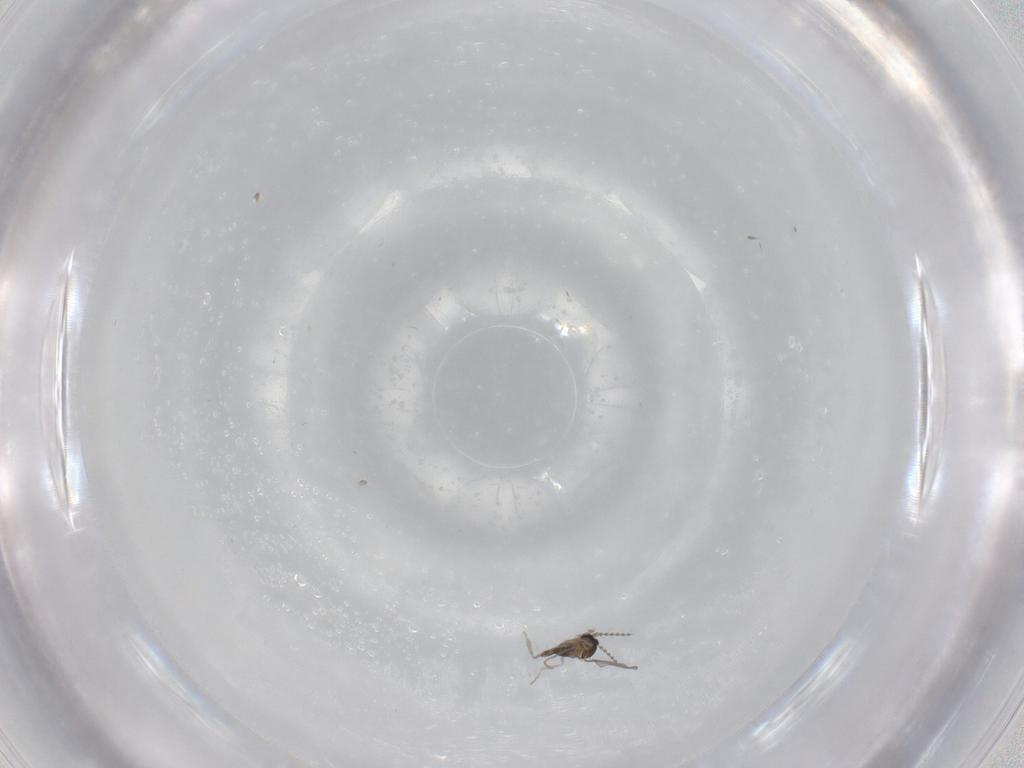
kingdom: Animalia
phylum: Arthropoda
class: Insecta
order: Diptera
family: Cecidomyiidae
